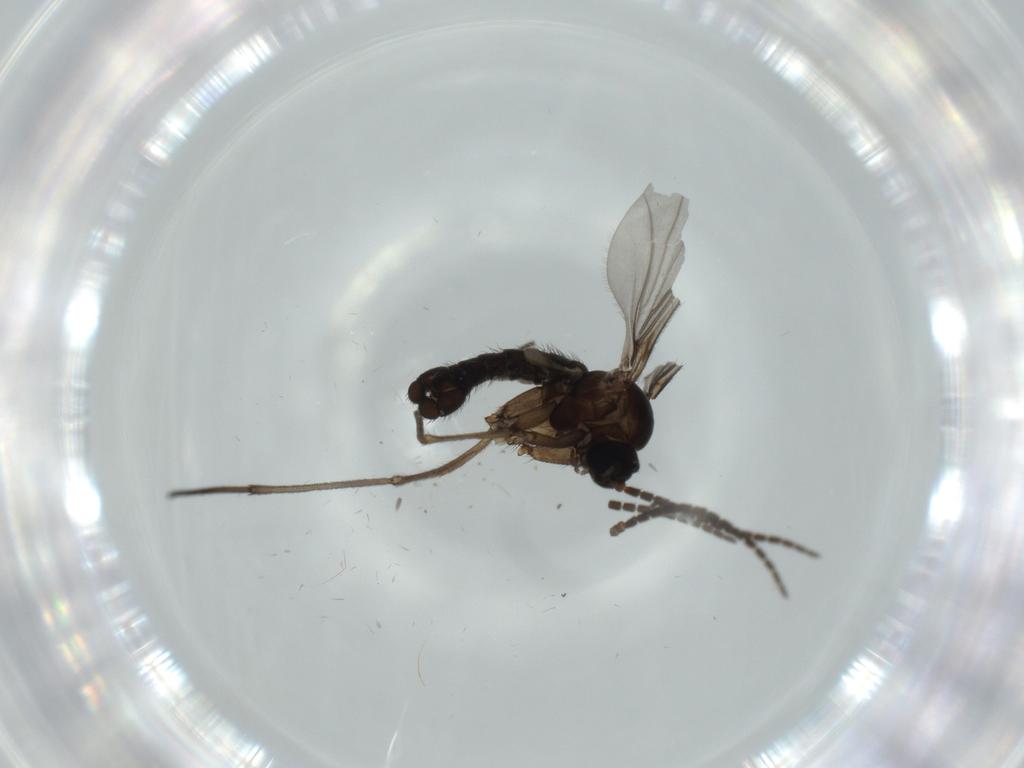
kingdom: Animalia
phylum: Arthropoda
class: Insecta
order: Diptera
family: Sciaridae
